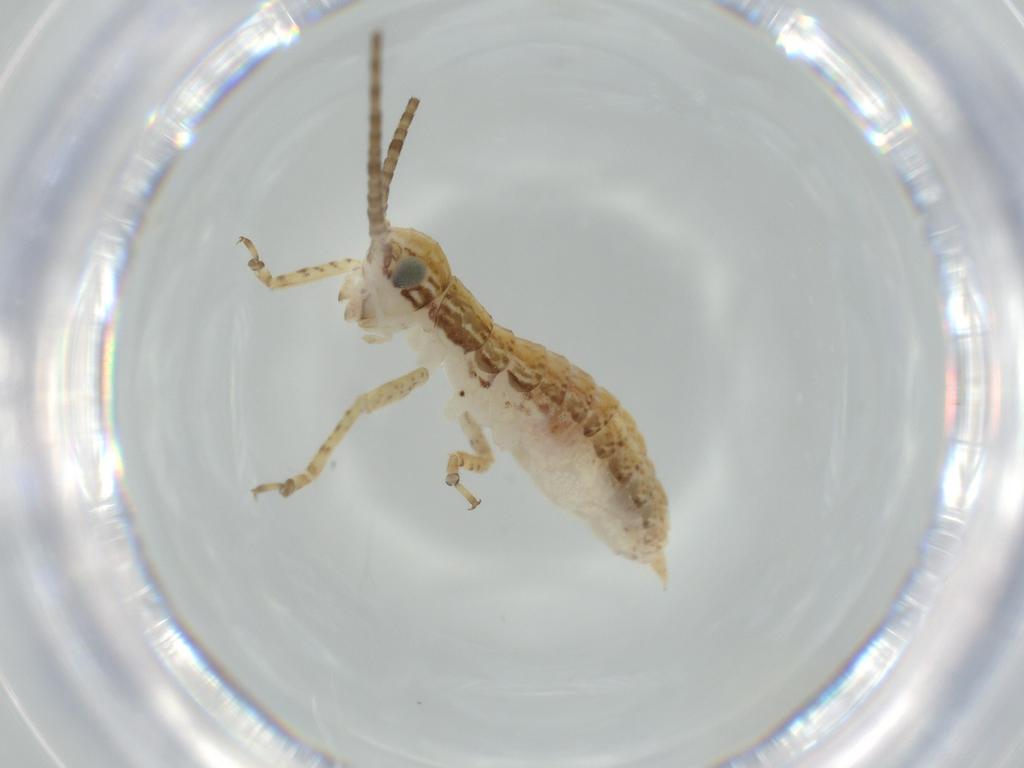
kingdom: Animalia
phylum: Arthropoda
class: Insecta
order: Orthoptera
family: Gryllidae
